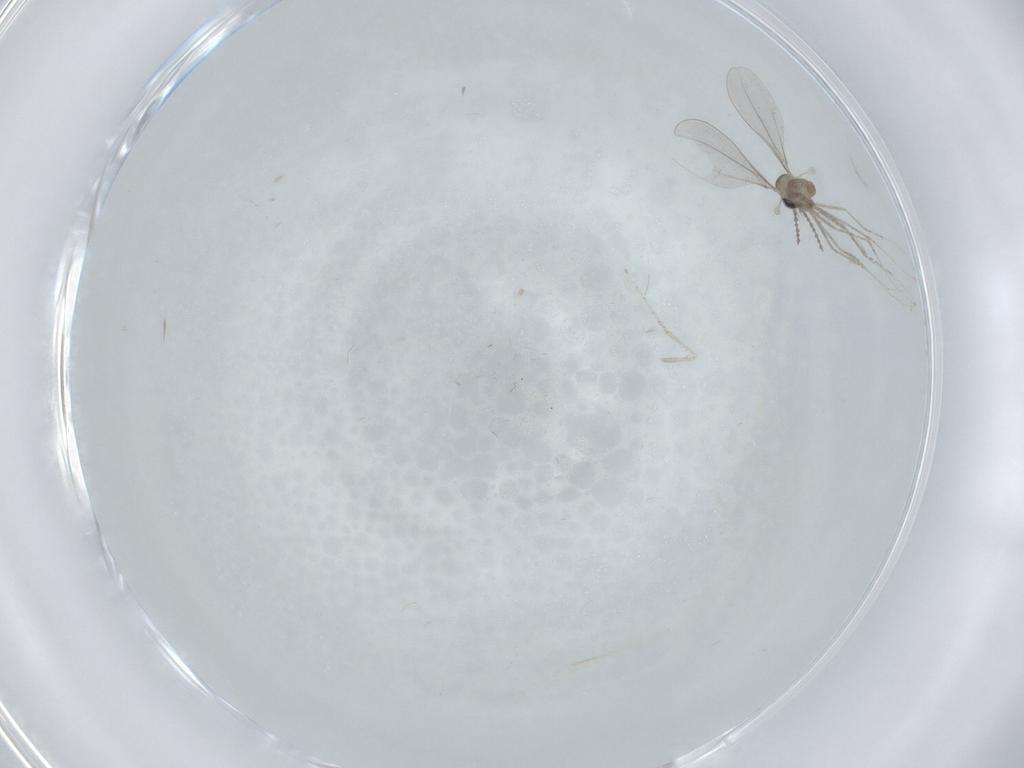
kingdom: Animalia
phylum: Arthropoda
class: Insecta
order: Diptera
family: Cecidomyiidae
